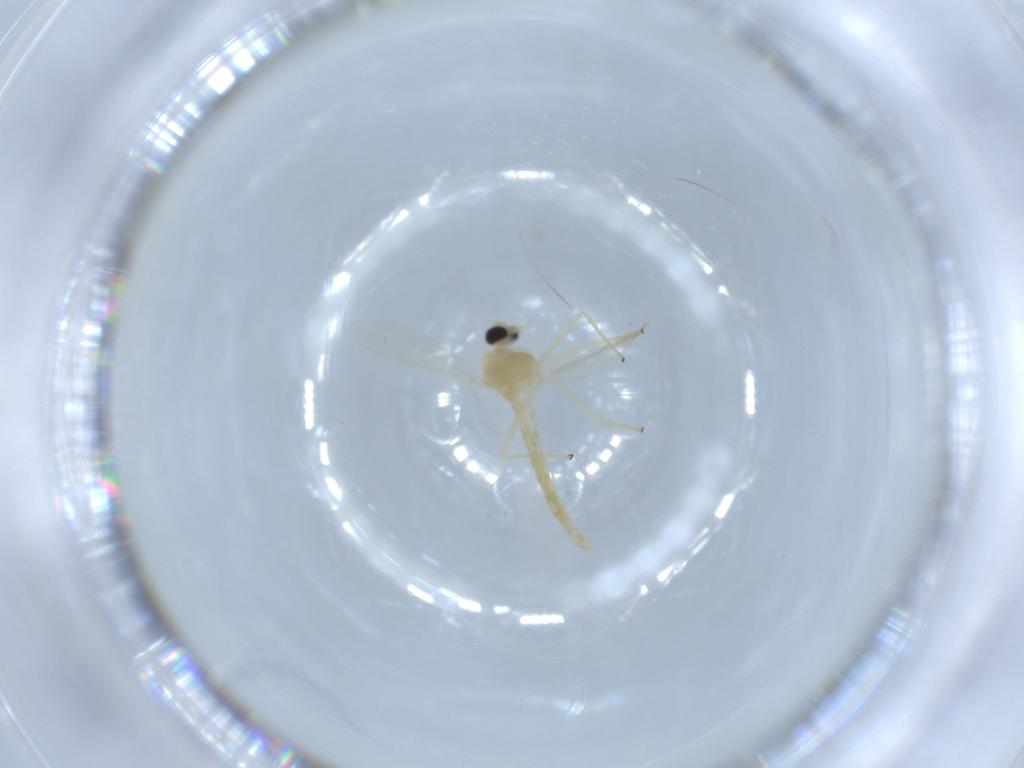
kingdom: Animalia
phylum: Arthropoda
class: Insecta
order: Diptera
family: Chironomidae
